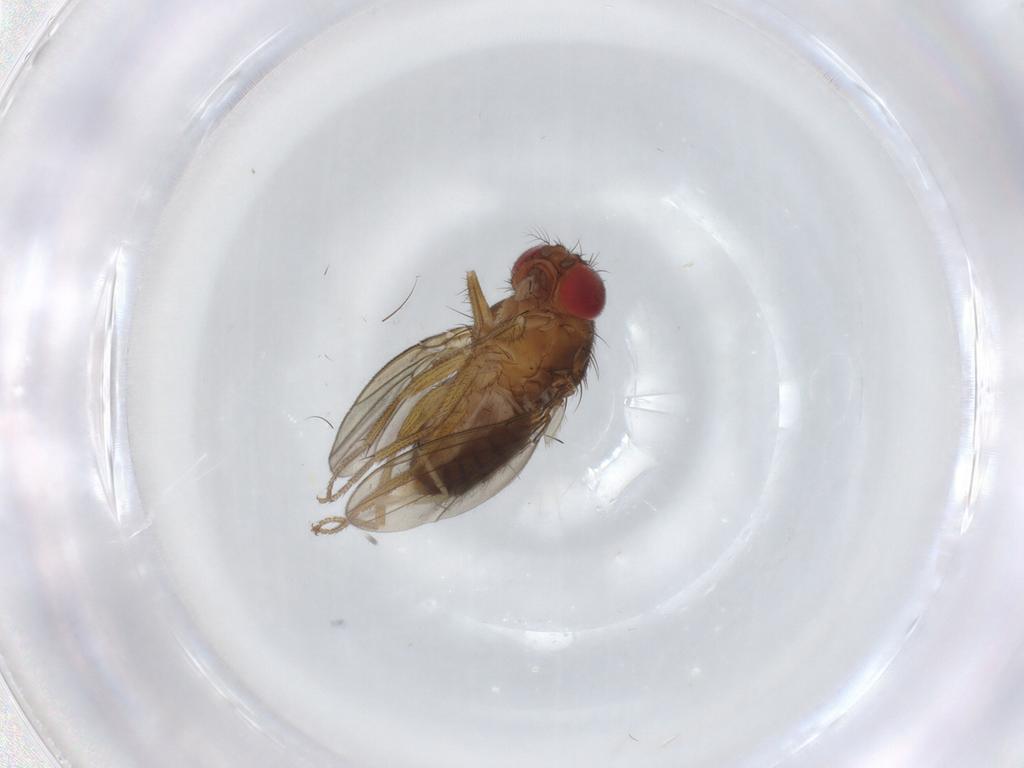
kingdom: Animalia
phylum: Arthropoda
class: Insecta
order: Diptera
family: Drosophilidae
